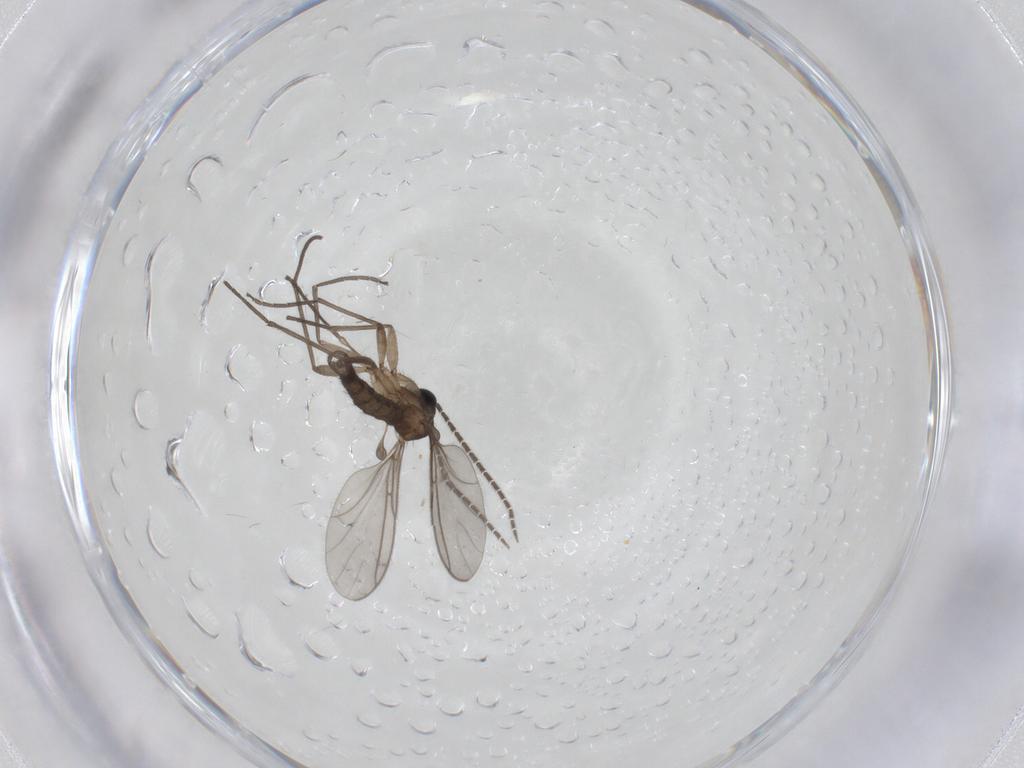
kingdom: Animalia
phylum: Arthropoda
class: Insecta
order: Diptera
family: Sciaridae
